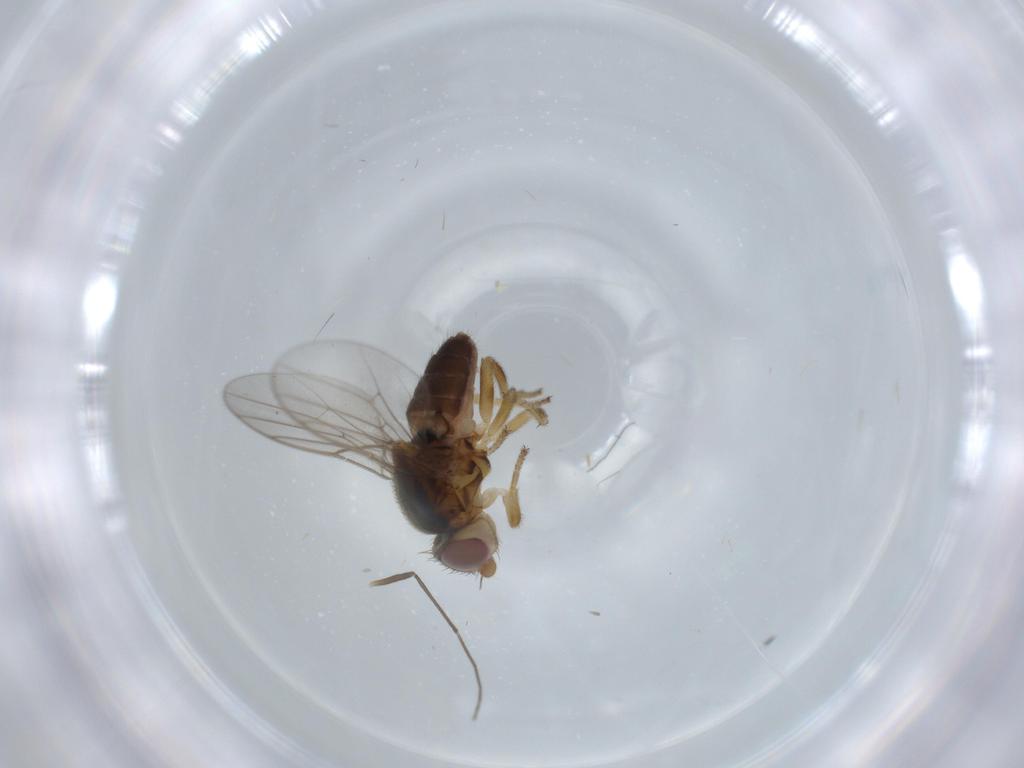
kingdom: Animalia
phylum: Arthropoda
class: Insecta
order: Diptera
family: Chloropidae
